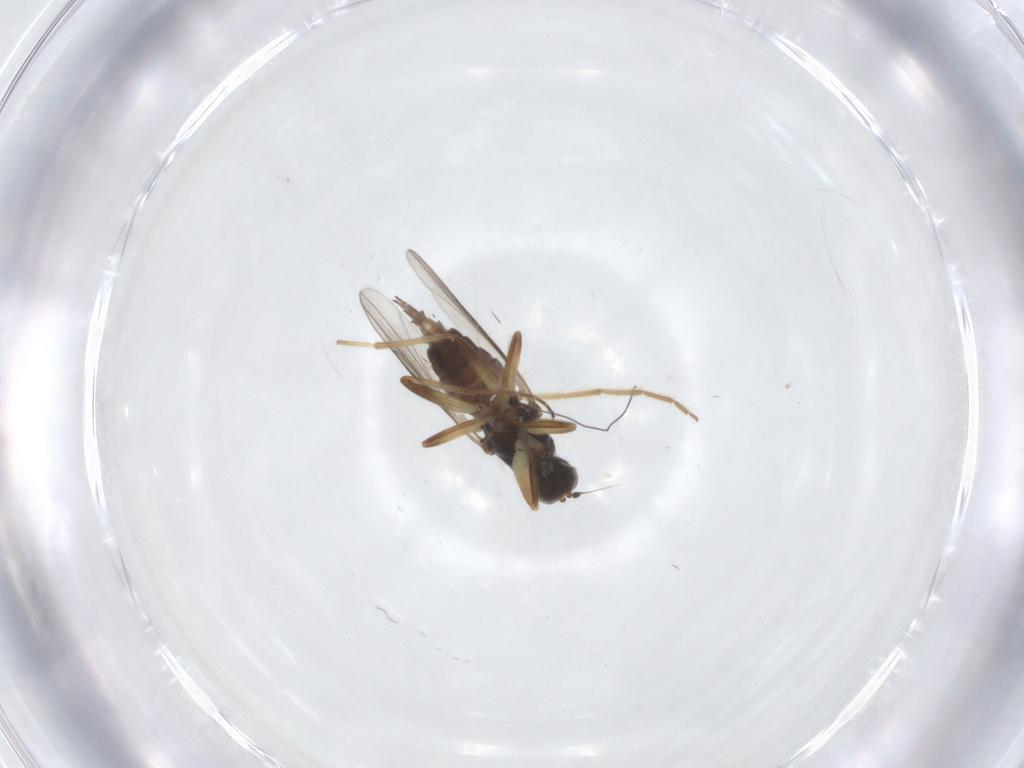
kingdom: Animalia
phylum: Arthropoda
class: Insecta
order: Diptera
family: Hybotidae
